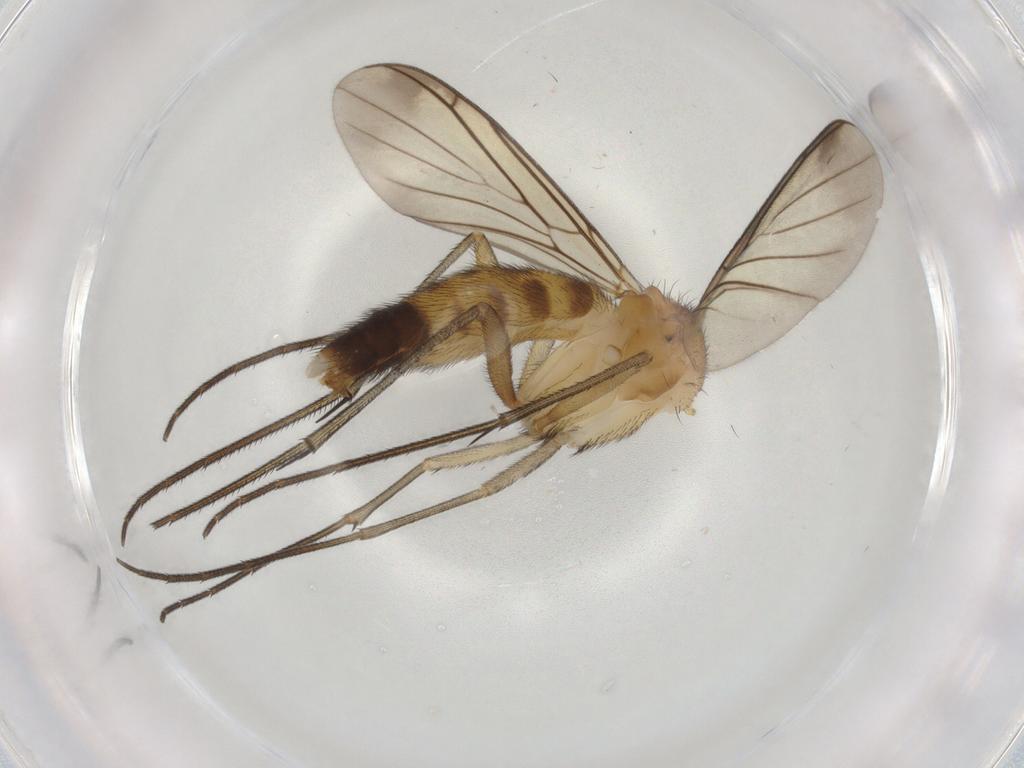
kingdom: Animalia
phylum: Arthropoda
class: Insecta
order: Diptera
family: Keroplatidae
